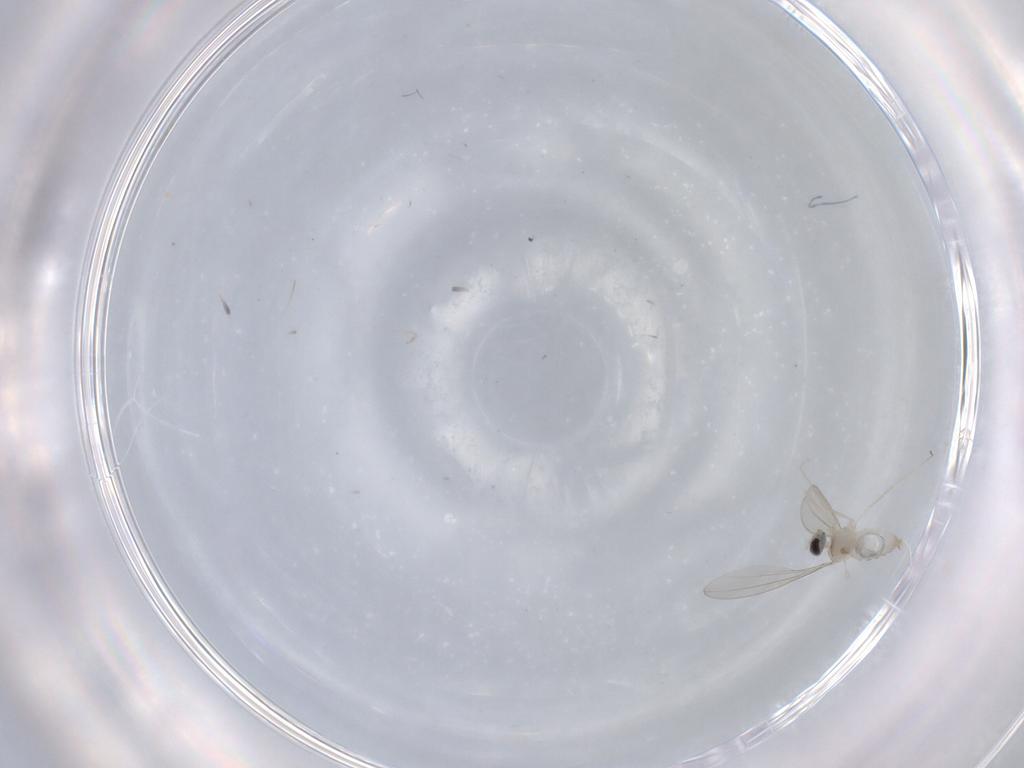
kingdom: Animalia
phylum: Arthropoda
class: Insecta
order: Diptera
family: Cecidomyiidae
